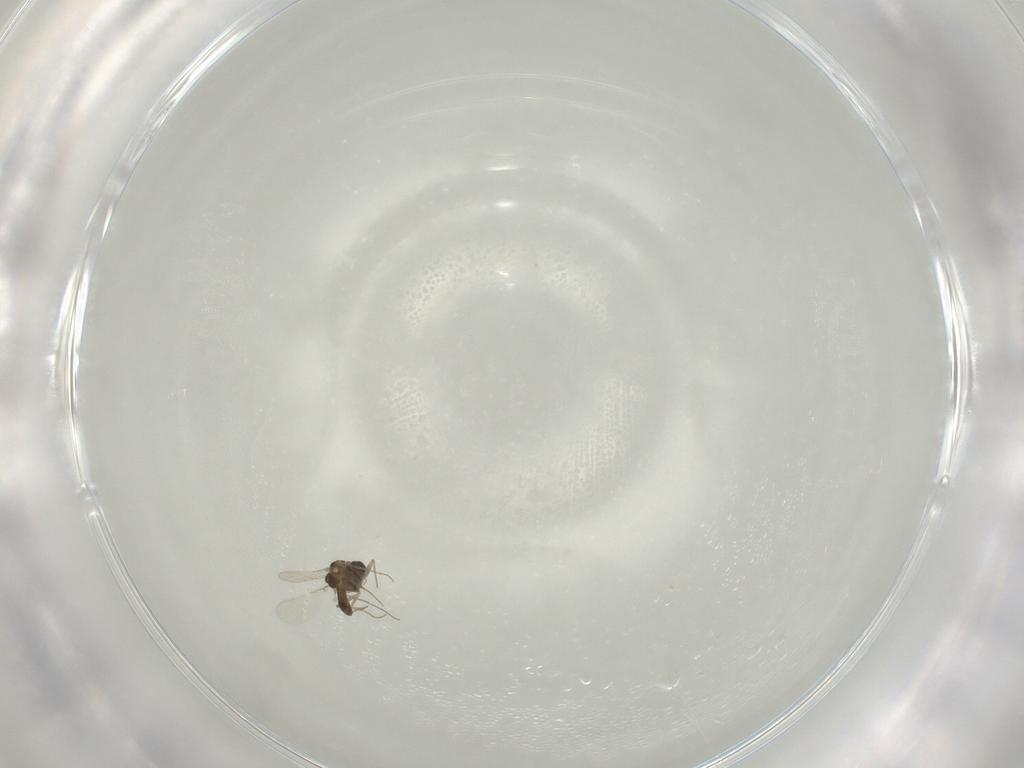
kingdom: Animalia
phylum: Arthropoda
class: Insecta
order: Diptera
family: Chironomidae
